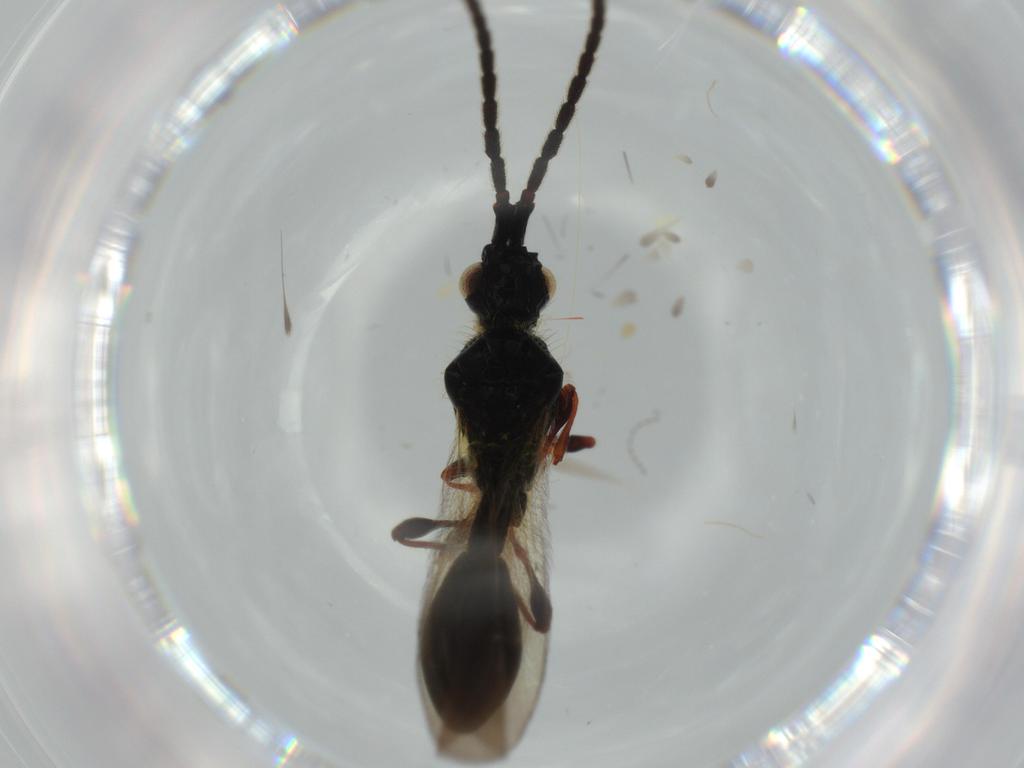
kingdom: Animalia
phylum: Arthropoda
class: Insecta
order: Hymenoptera
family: Diapriidae
